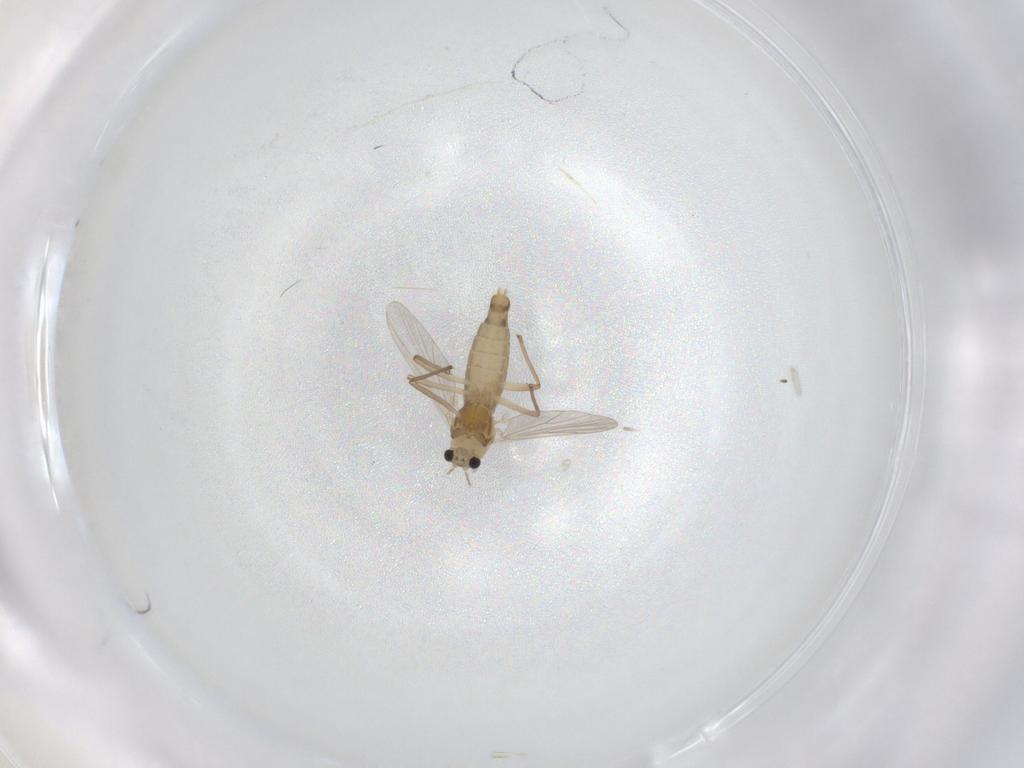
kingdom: Animalia
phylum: Arthropoda
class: Insecta
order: Diptera
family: Chironomidae
